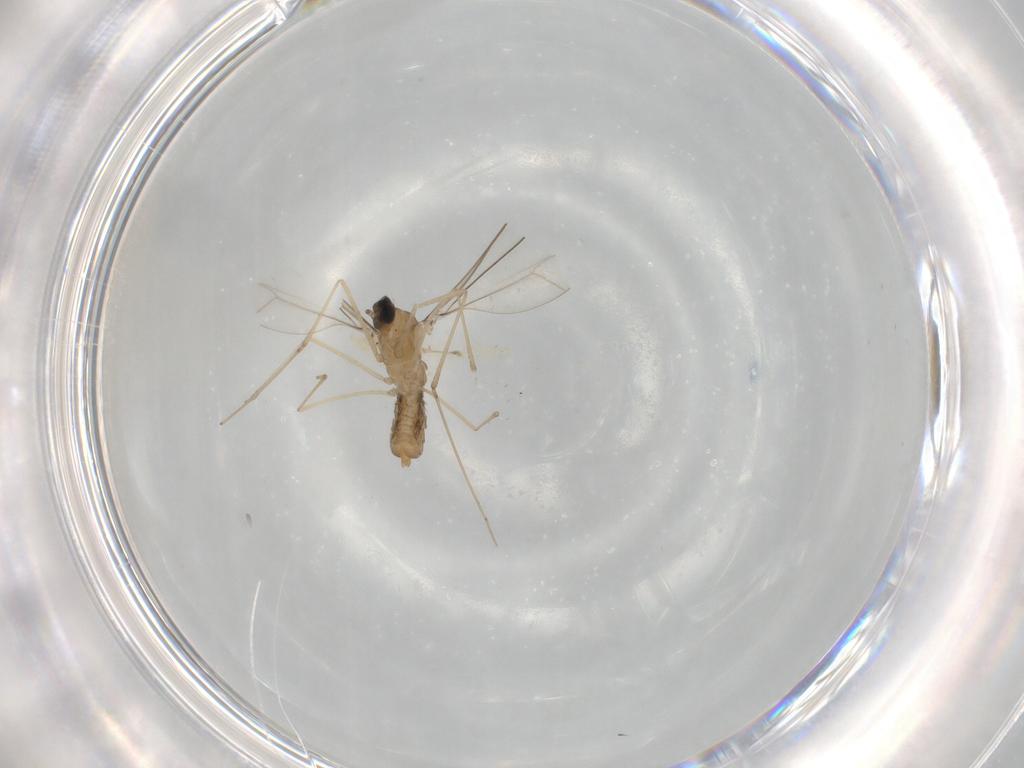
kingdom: Animalia
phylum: Arthropoda
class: Insecta
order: Diptera
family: Cecidomyiidae
